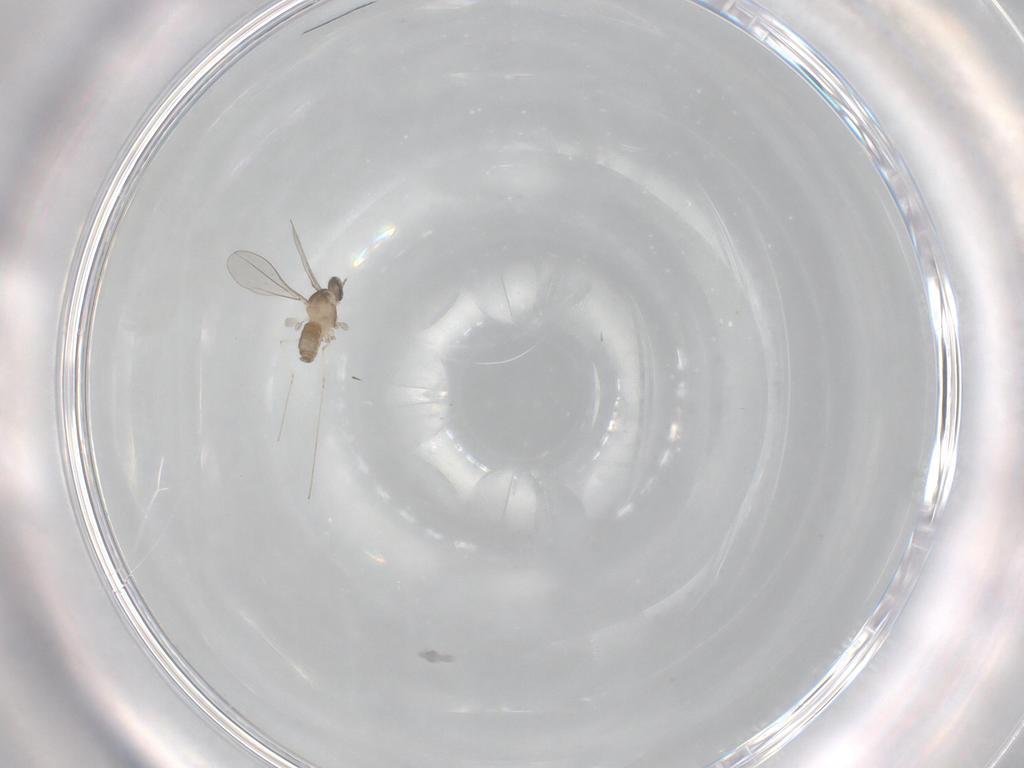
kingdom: Animalia
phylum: Arthropoda
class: Insecta
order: Diptera
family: Cecidomyiidae
